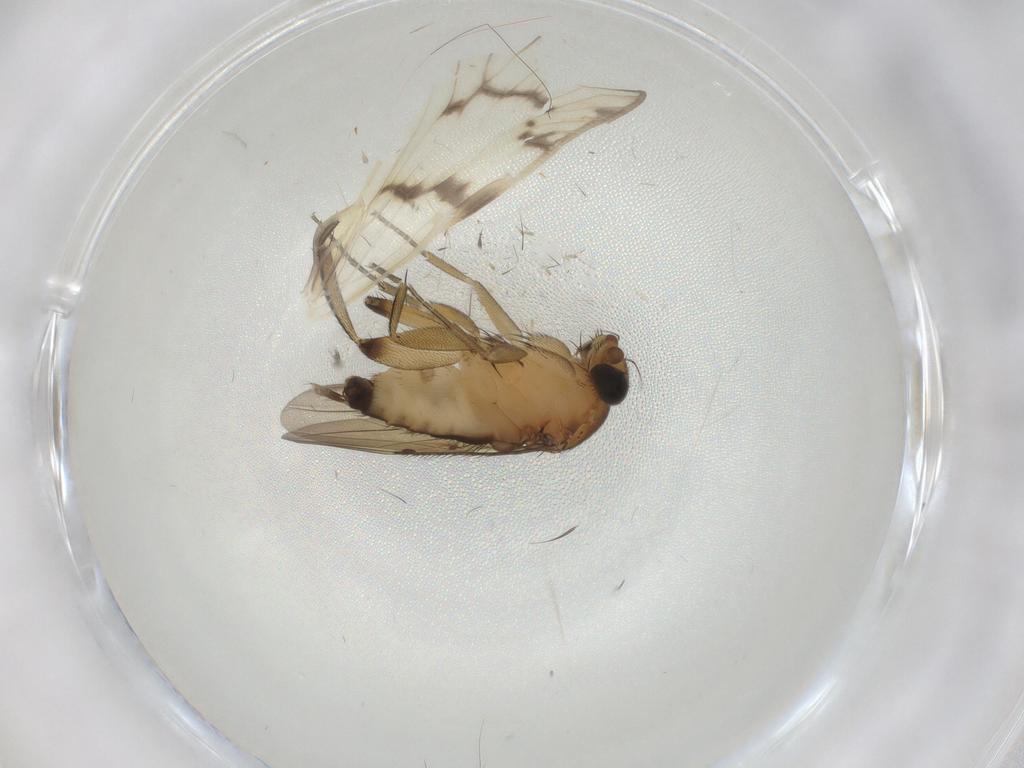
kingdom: Animalia
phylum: Arthropoda
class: Insecta
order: Diptera
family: Phoridae
